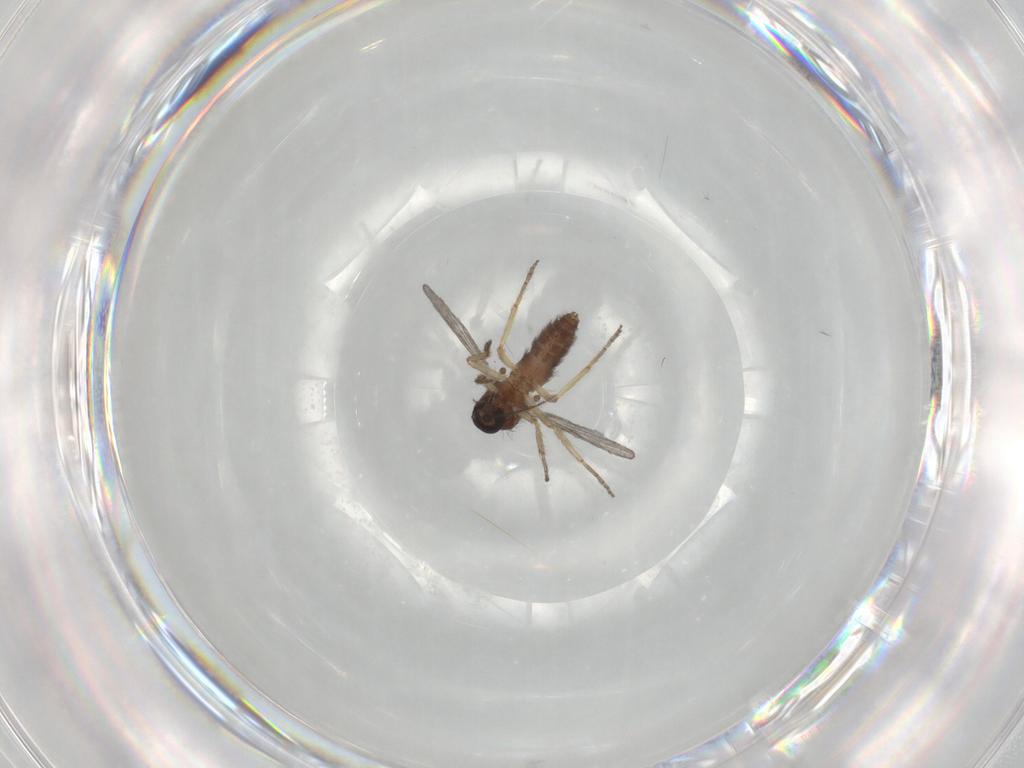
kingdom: Animalia
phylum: Arthropoda
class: Insecta
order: Diptera
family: Ceratopogonidae
